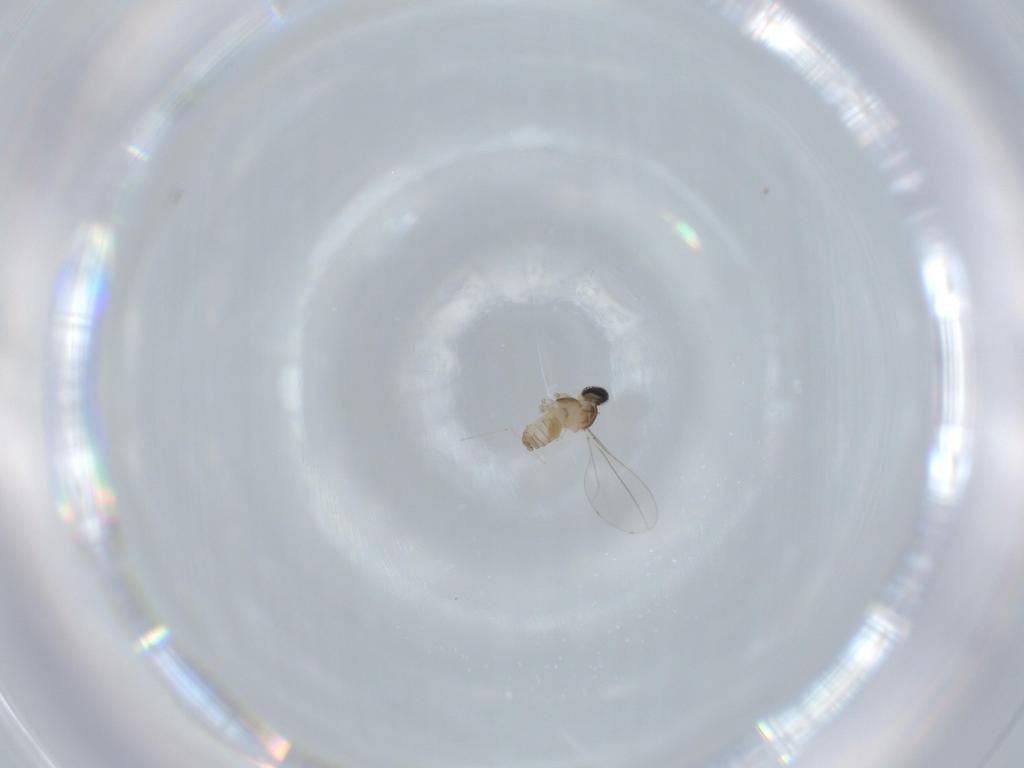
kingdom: Animalia
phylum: Arthropoda
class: Insecta
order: Diptera
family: Cecidomyiidae
